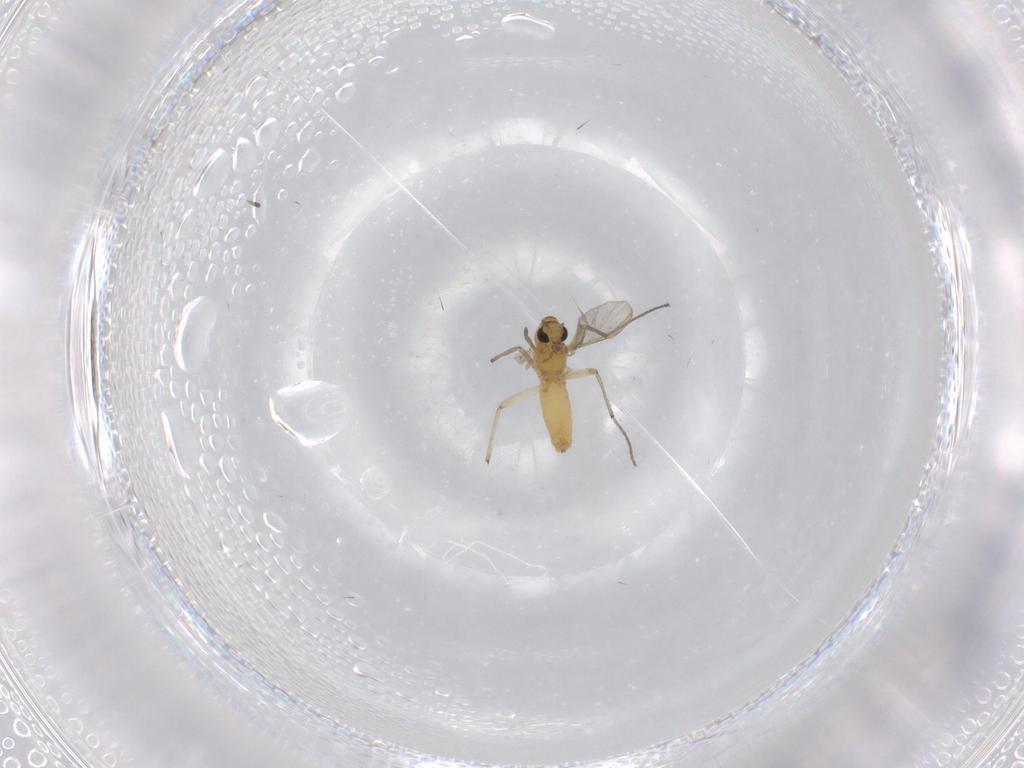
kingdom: Animalia
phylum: Arthropoda
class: Insecta
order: Diptera
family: Chironomidae
